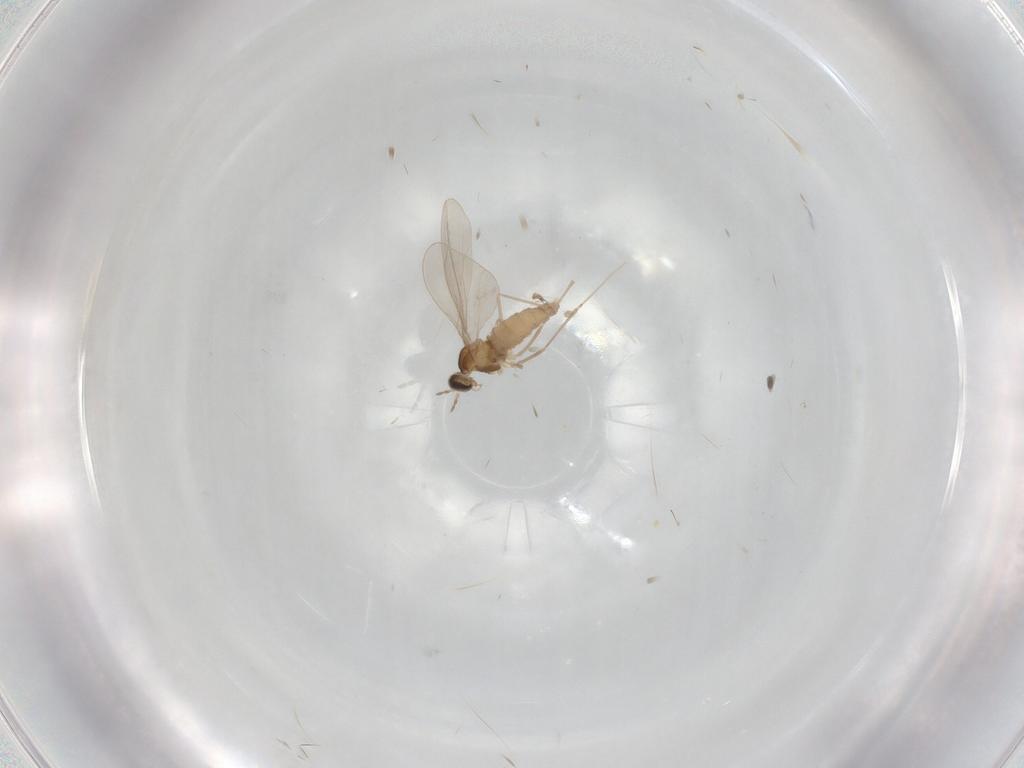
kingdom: Animalia
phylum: Arthropoda
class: Insecta
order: Diptera
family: Cecidomyiidae
